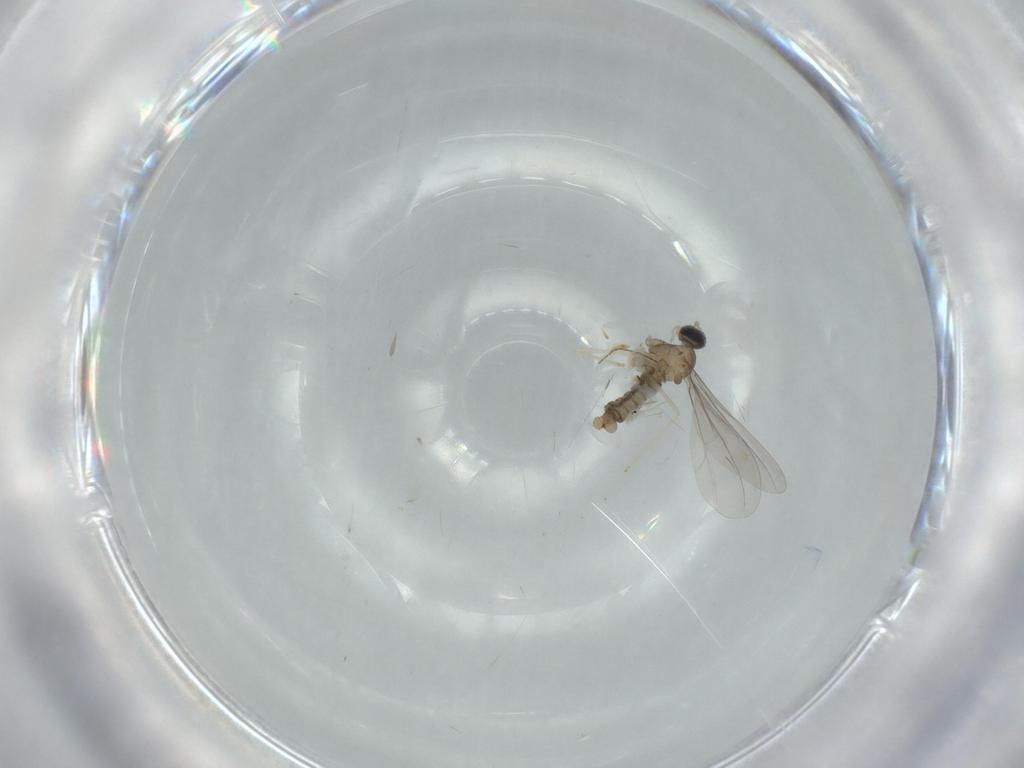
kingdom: Animalia
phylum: Arthropoda
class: Insecta
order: Diptera
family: Cecidomyiidae
